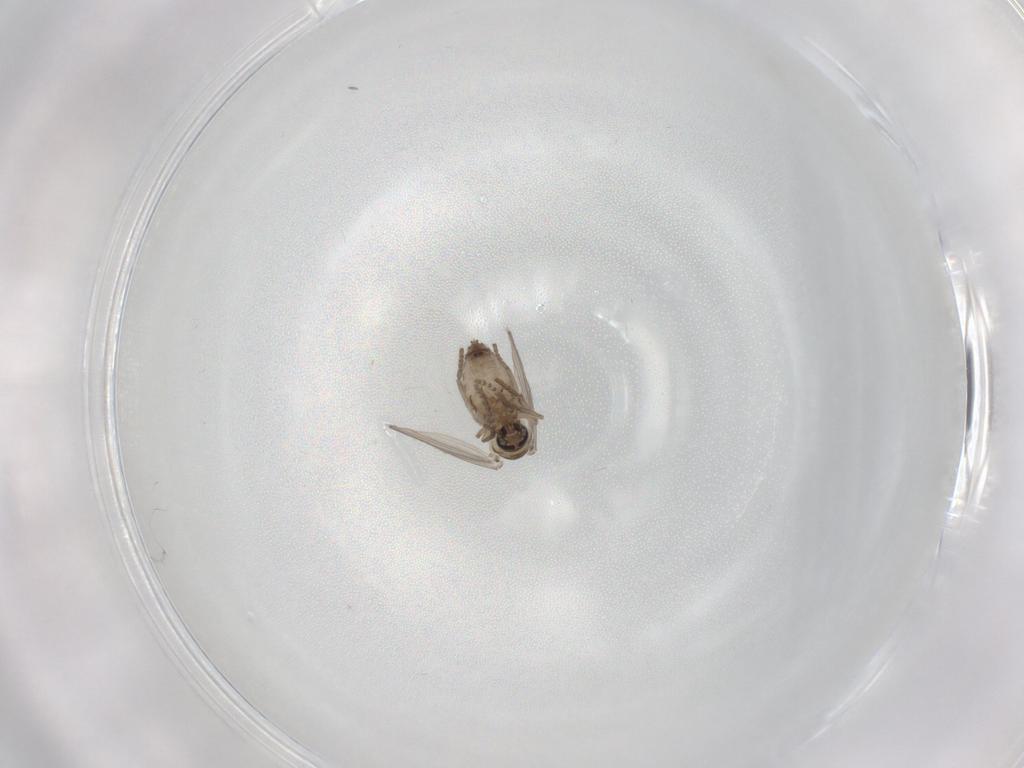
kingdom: Animalia
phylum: Arthropoda
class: Insecta
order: Diptera
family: Psychodidae
